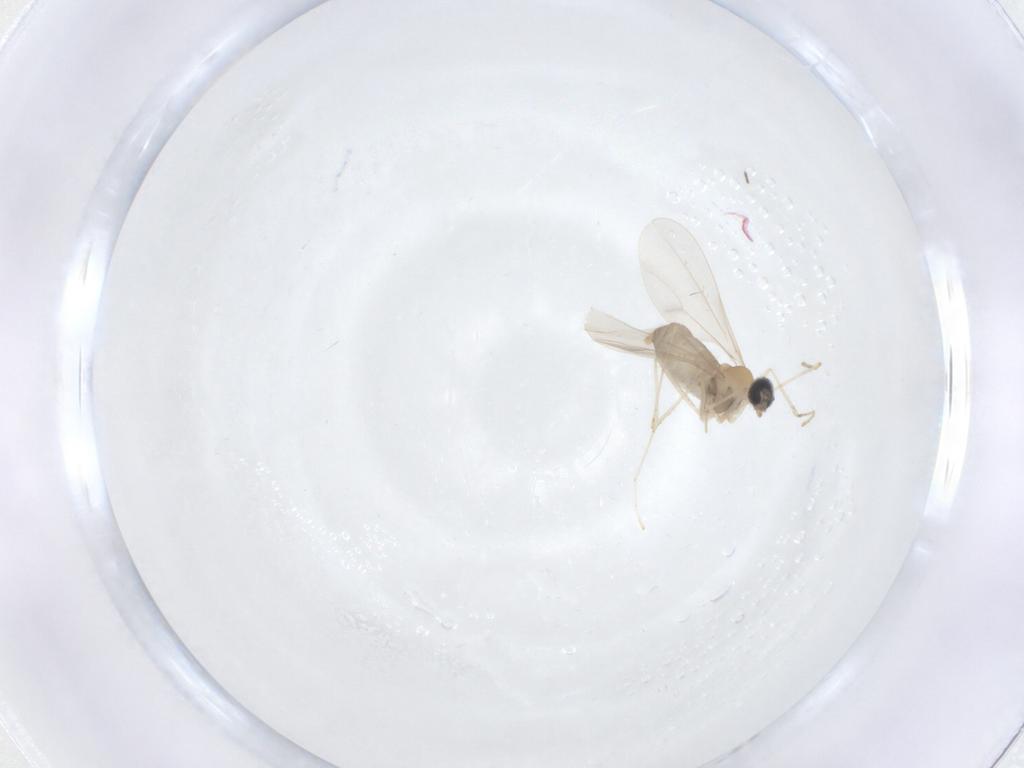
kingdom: Animalia
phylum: Arthropoda
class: Insecta
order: Diptera
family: Cecidomyiidae
